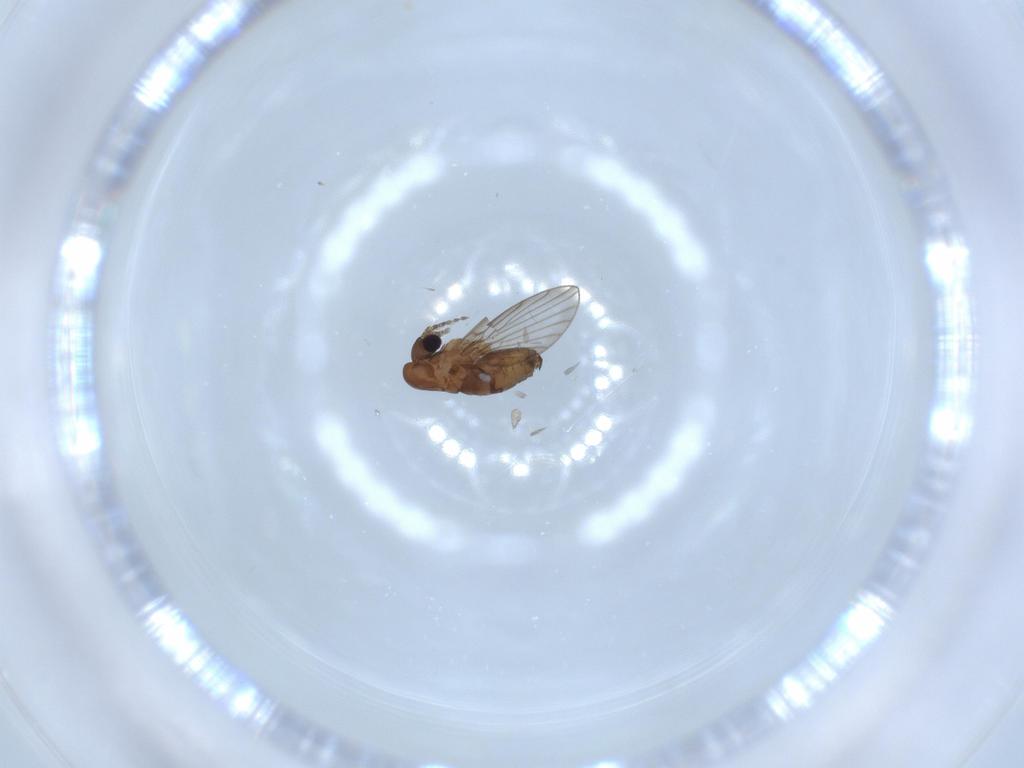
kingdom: Animalia
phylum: Arthropoda
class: Insecta
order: Diptera
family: Psychodidae
